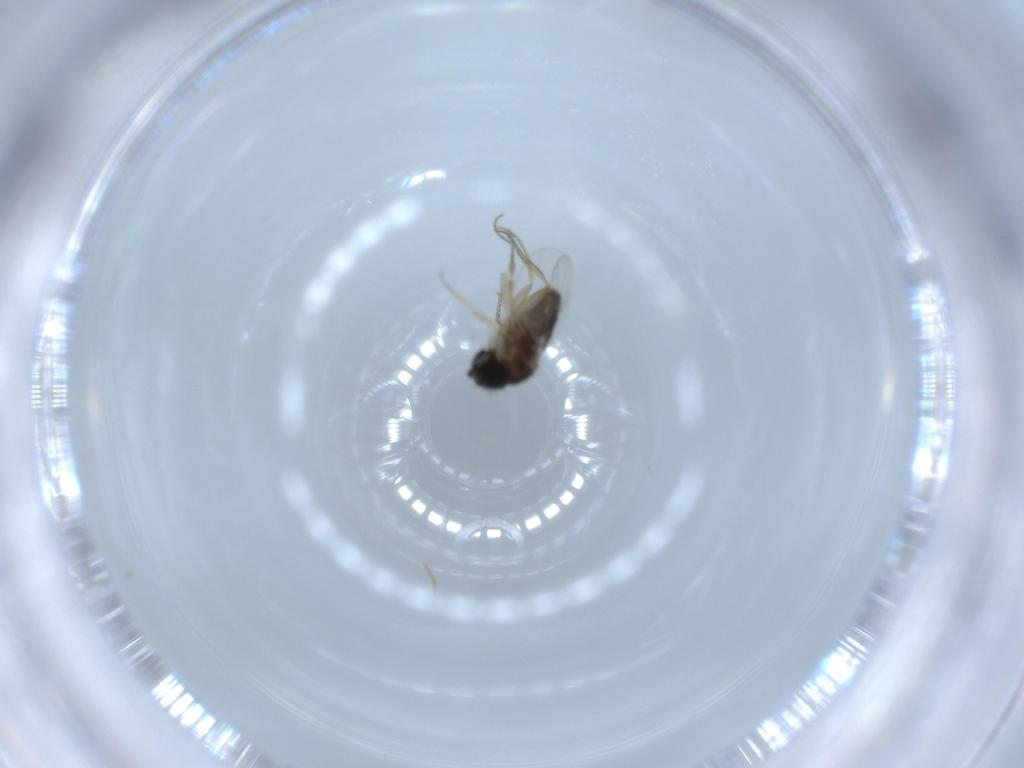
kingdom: Animalia
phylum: Arthropoda
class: Insecta
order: Diptera
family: Phoridae
